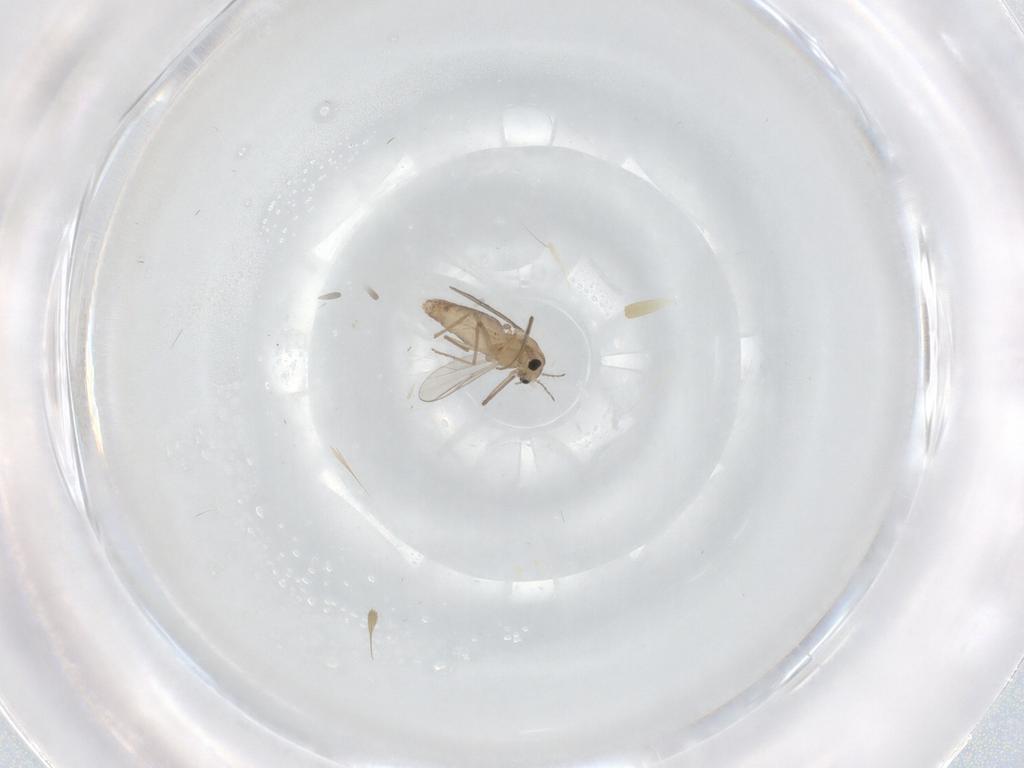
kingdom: Animalia
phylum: Arthropoda
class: Insecta
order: Diptera
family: Chironomidae
